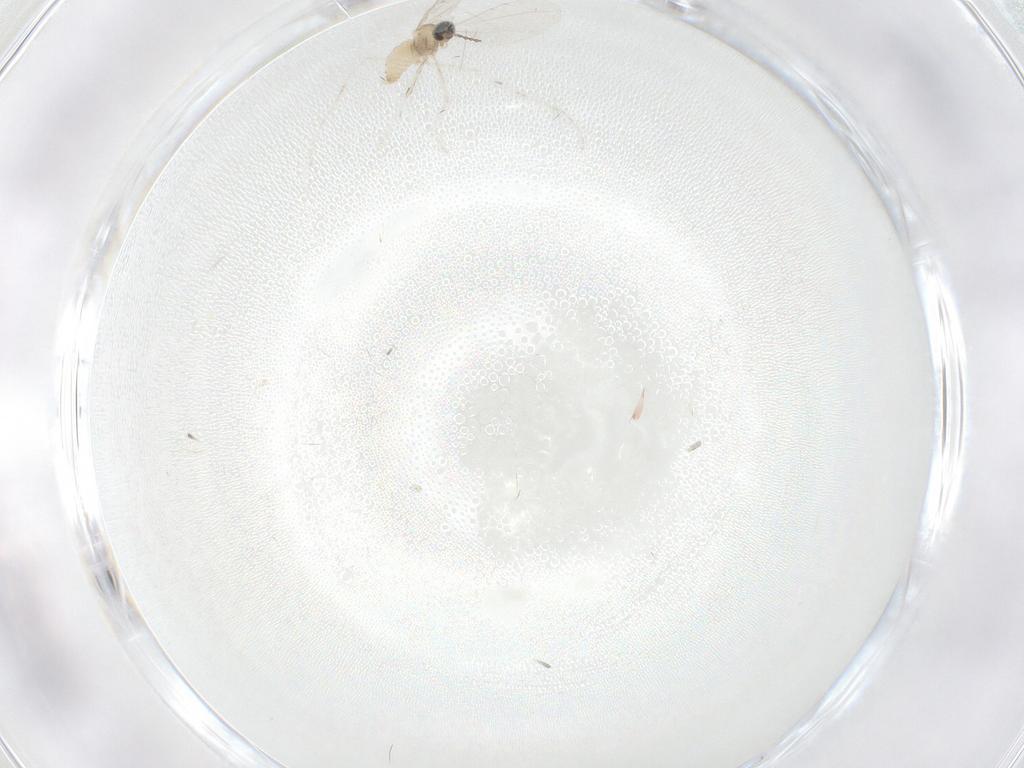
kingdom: Animalia
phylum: Arthropoda
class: Insecta
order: Diptera
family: Cecidomyiidae
